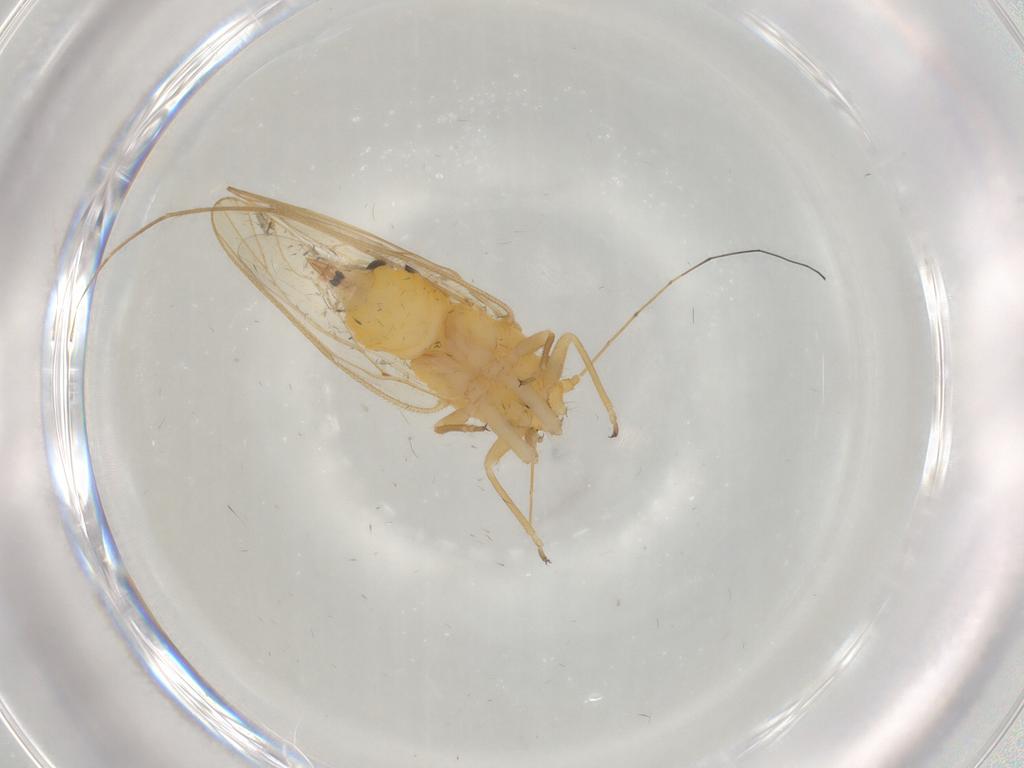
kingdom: Animalia
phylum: Arthropoda
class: Insecta
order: Hemiptera
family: Psyllidae
